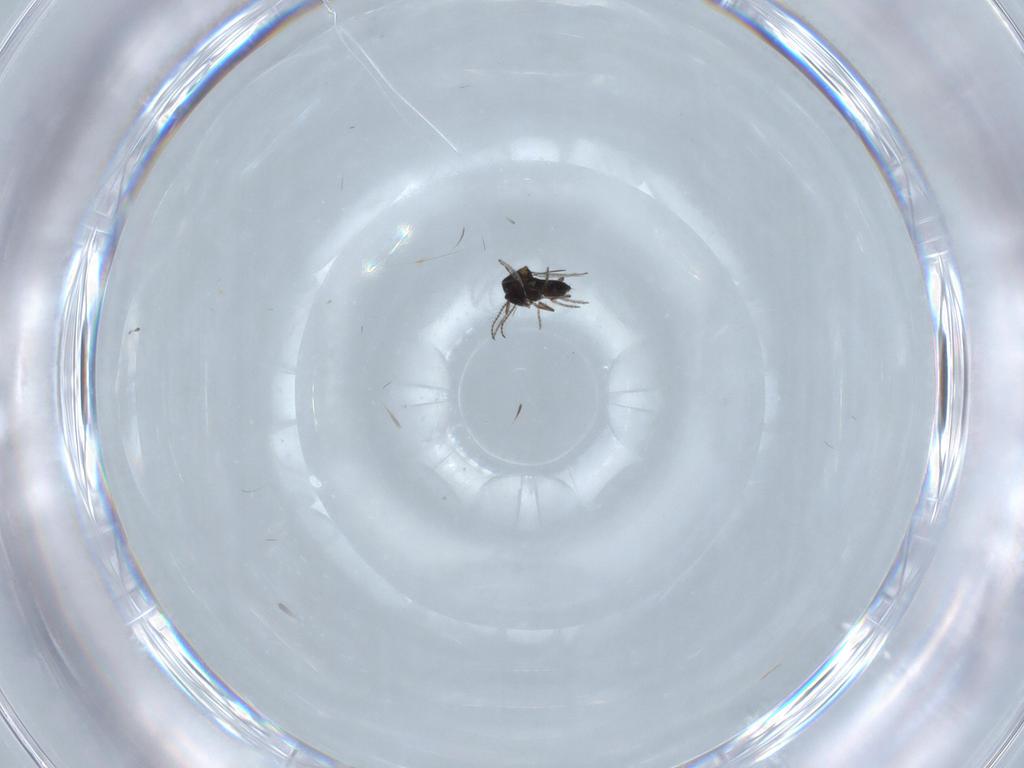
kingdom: Animalia
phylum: Arthropoda
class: Insecta
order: Diptera
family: Ceratopogonidae
